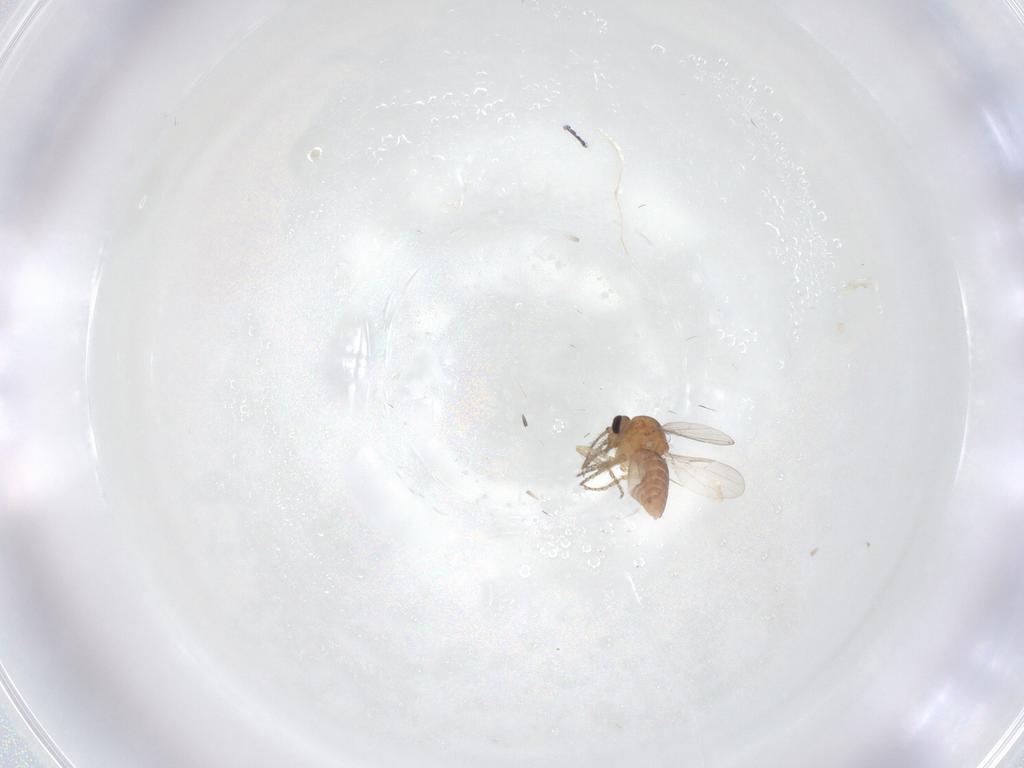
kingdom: Animalia
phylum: Arthropoda
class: Insecta
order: Diptera
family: Ceratopogonidae
